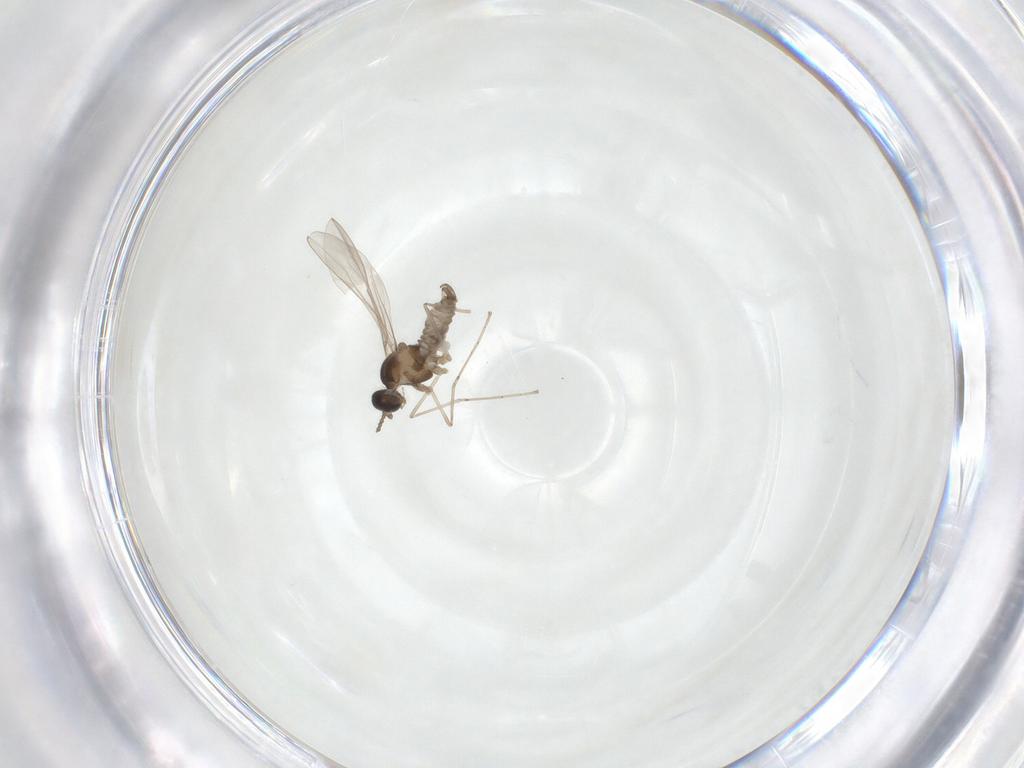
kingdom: Animalia
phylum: Arthropoda
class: Insecta
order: Diptera
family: Cecidomyiidae
